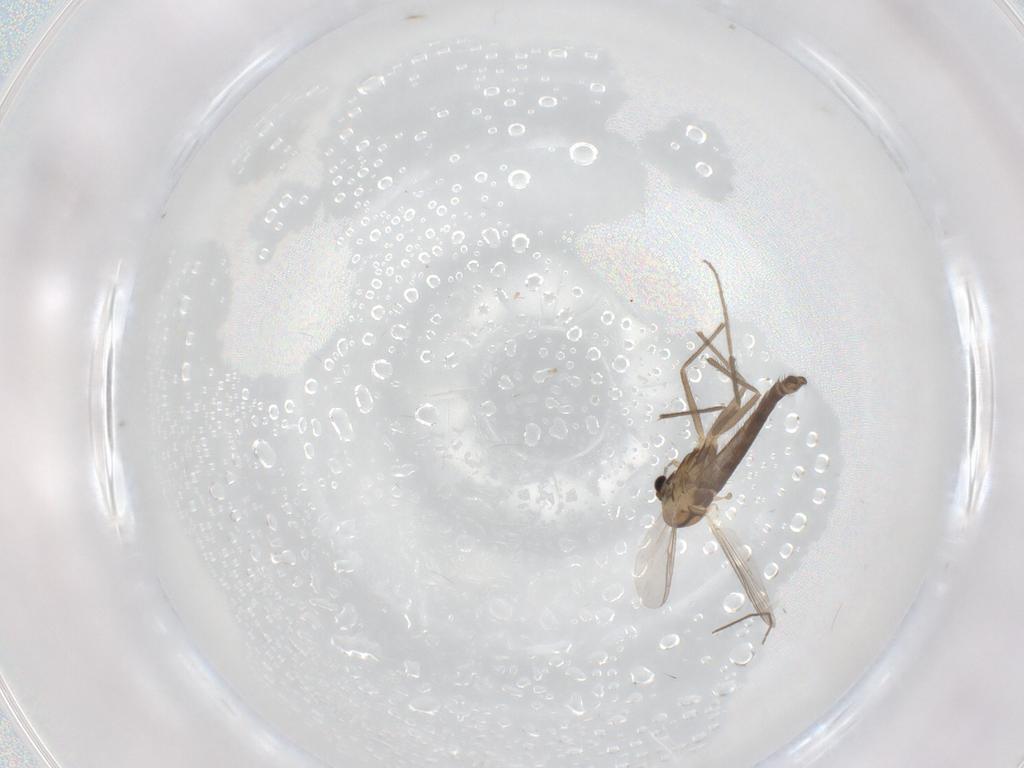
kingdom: Animalia
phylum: Arthropoda
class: Insecta
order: Diptera
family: Chironomidae
